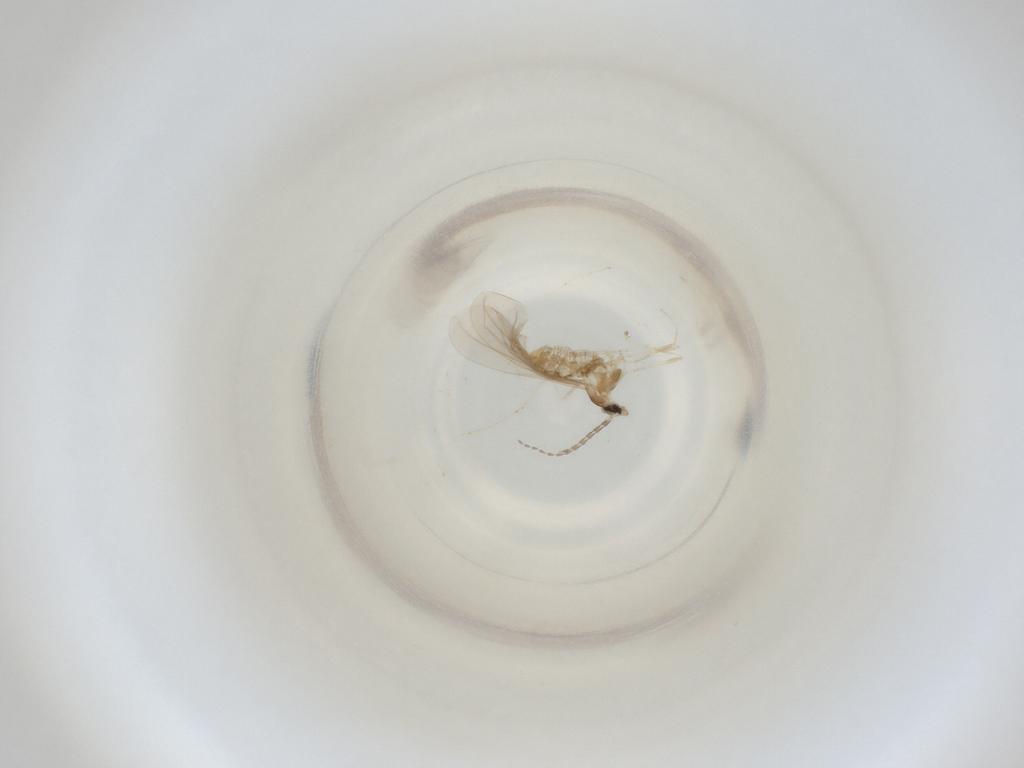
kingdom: Animalia
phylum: Arthropoda
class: Insecta
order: Diptera
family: Cecidomyiidae
